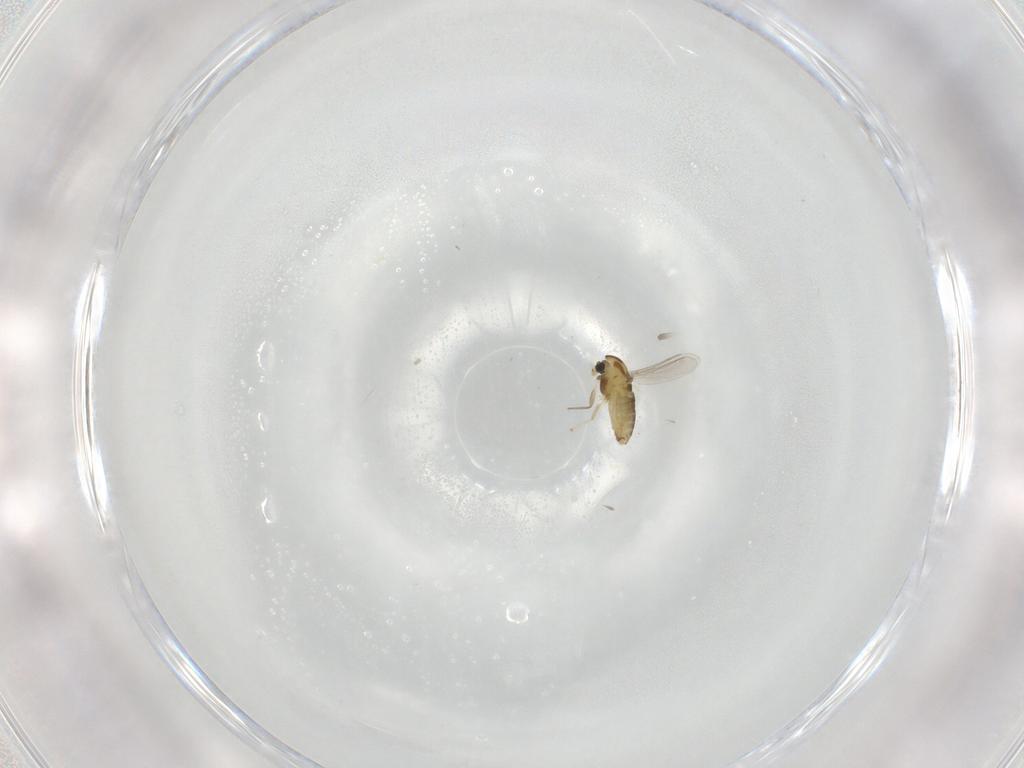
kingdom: Animalia
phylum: Arthropoda
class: Insecta
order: Diptera
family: Chironomidae
